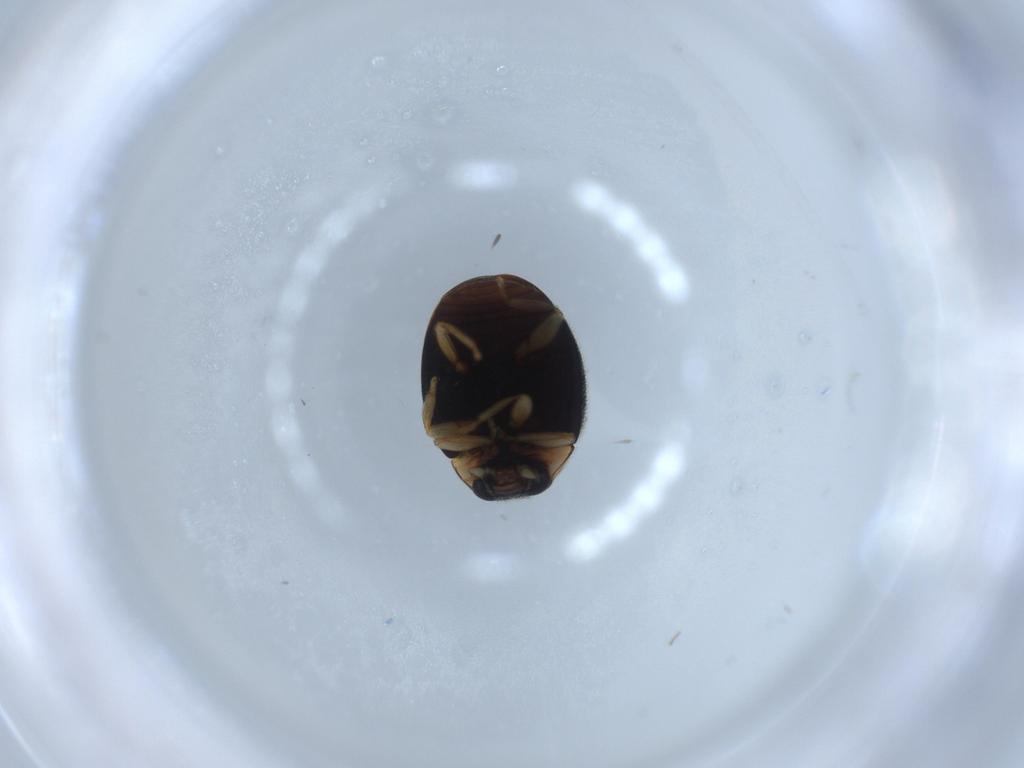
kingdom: Animalia
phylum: Arthropoda
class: Insecta
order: Coleoptera
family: Coccinellidae
